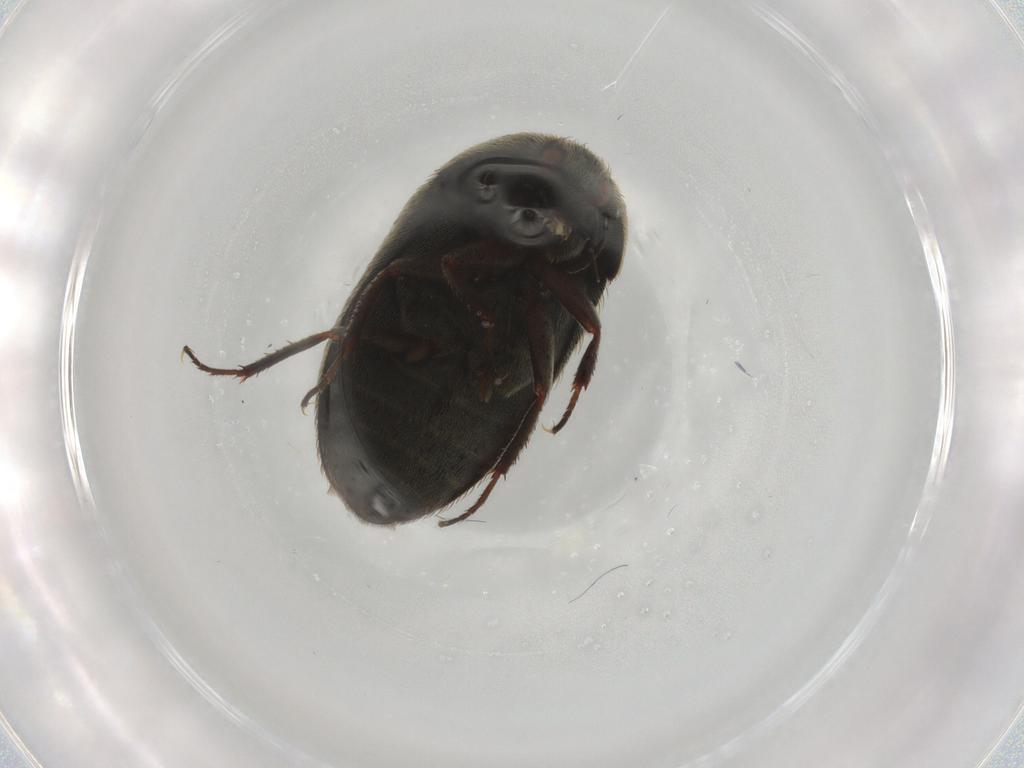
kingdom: Animalia
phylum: Arthropoda
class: Insecta
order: Coleoptera
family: Dermestidae
